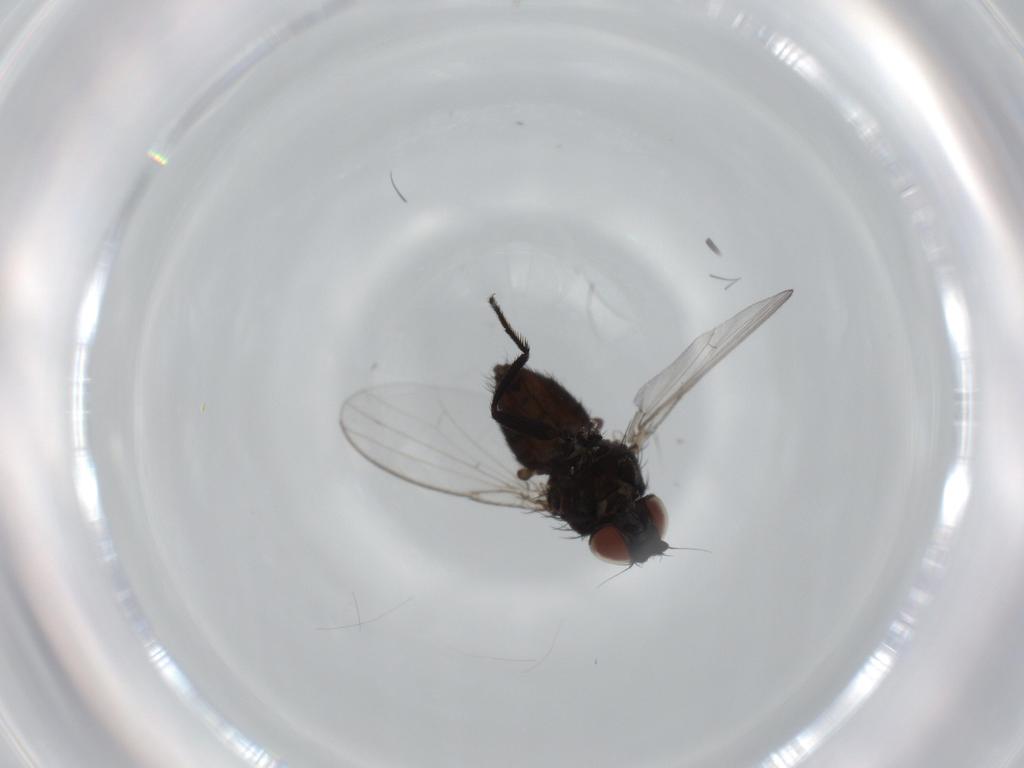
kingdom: Animalia
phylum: Arthropoda
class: Insecta
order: Diptera
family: Milichiidae
